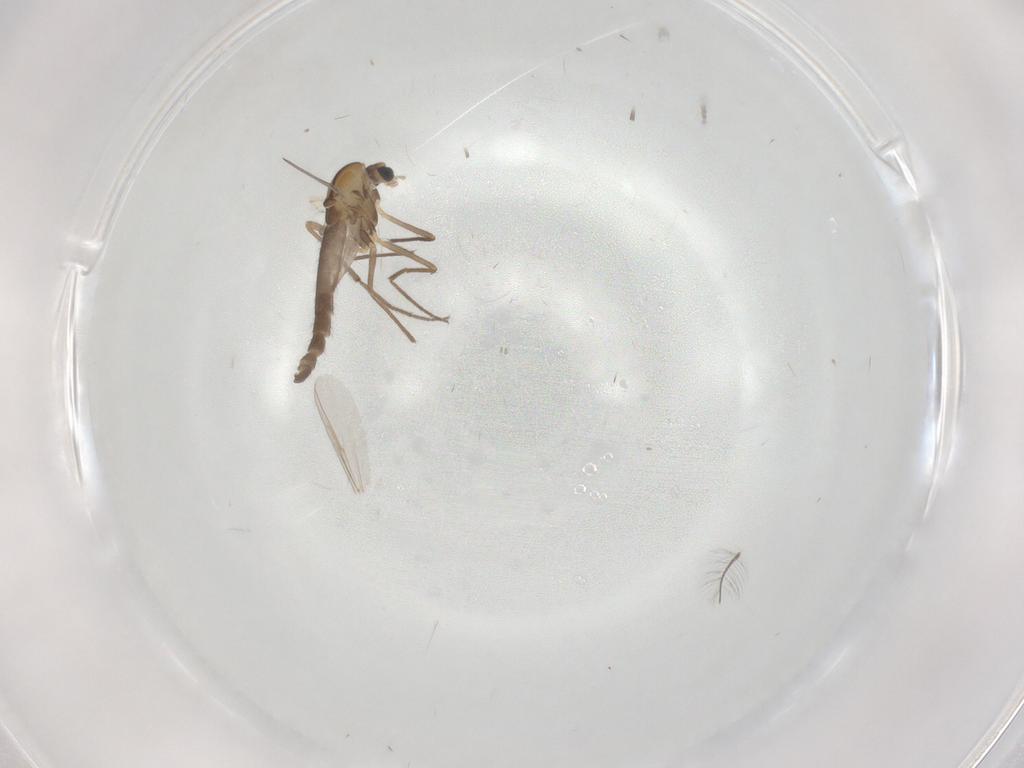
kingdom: Animalia
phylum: Arthropoda
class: Insecta
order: Diptera
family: Chironomidae
